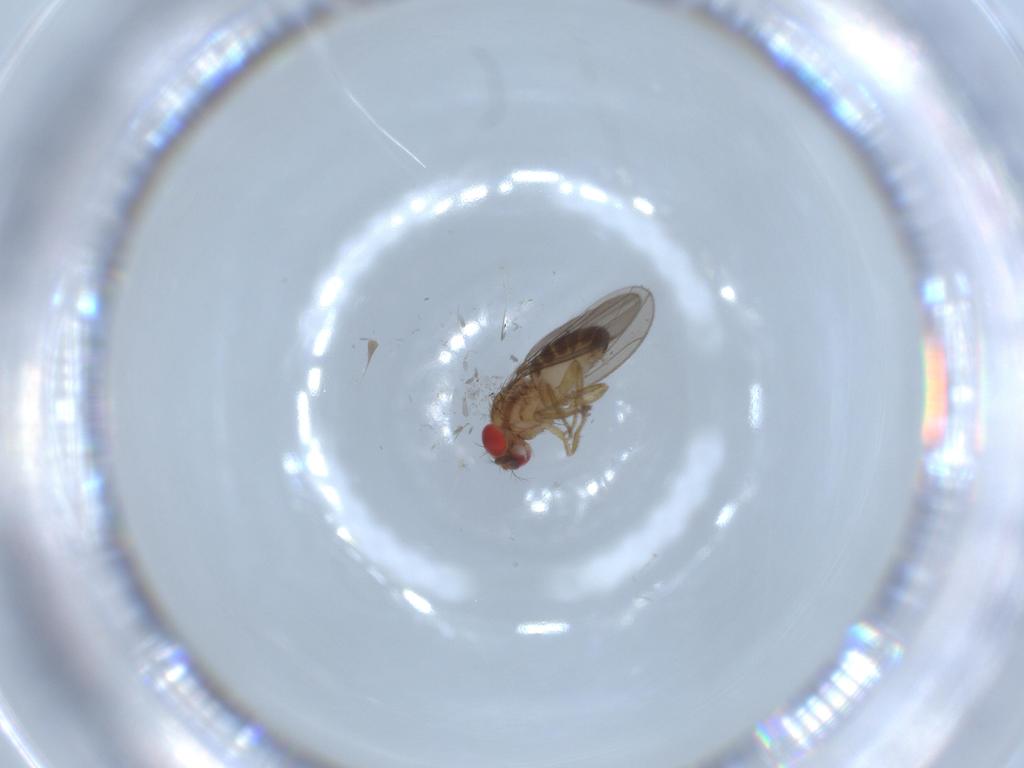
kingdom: Animalia
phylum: Arthropoda
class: Insecta
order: Diptera
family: Drosophilidae
